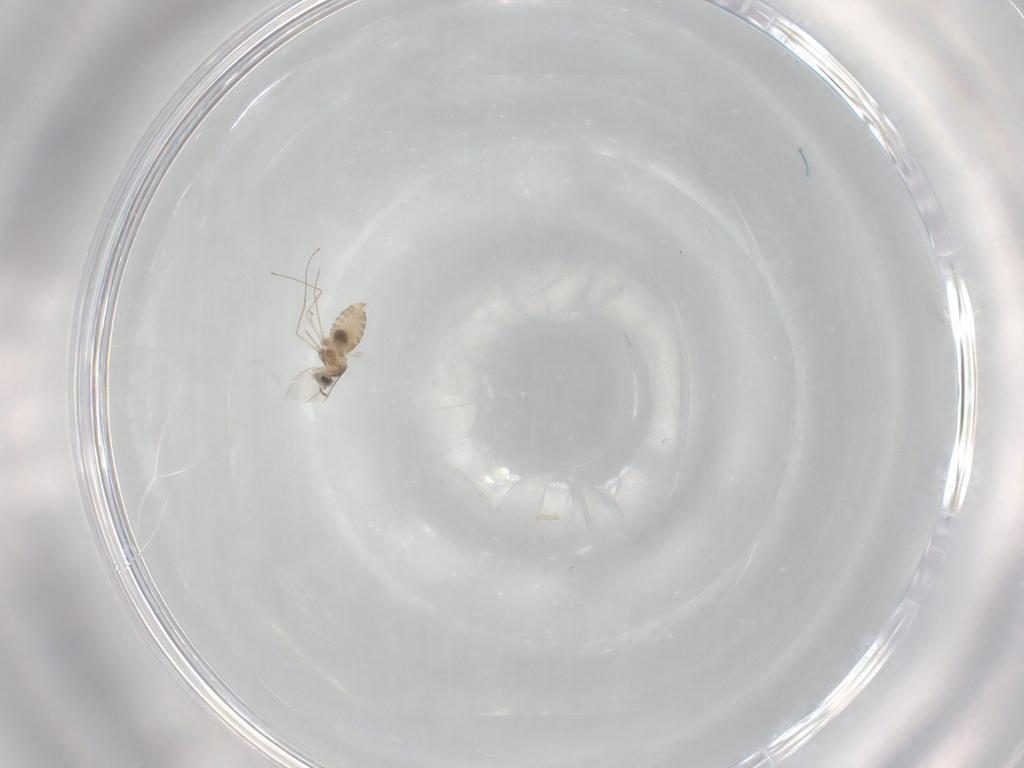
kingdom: Animalia
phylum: Arthropoda
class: Insecta
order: Diptera
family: Cecidomyiidae
